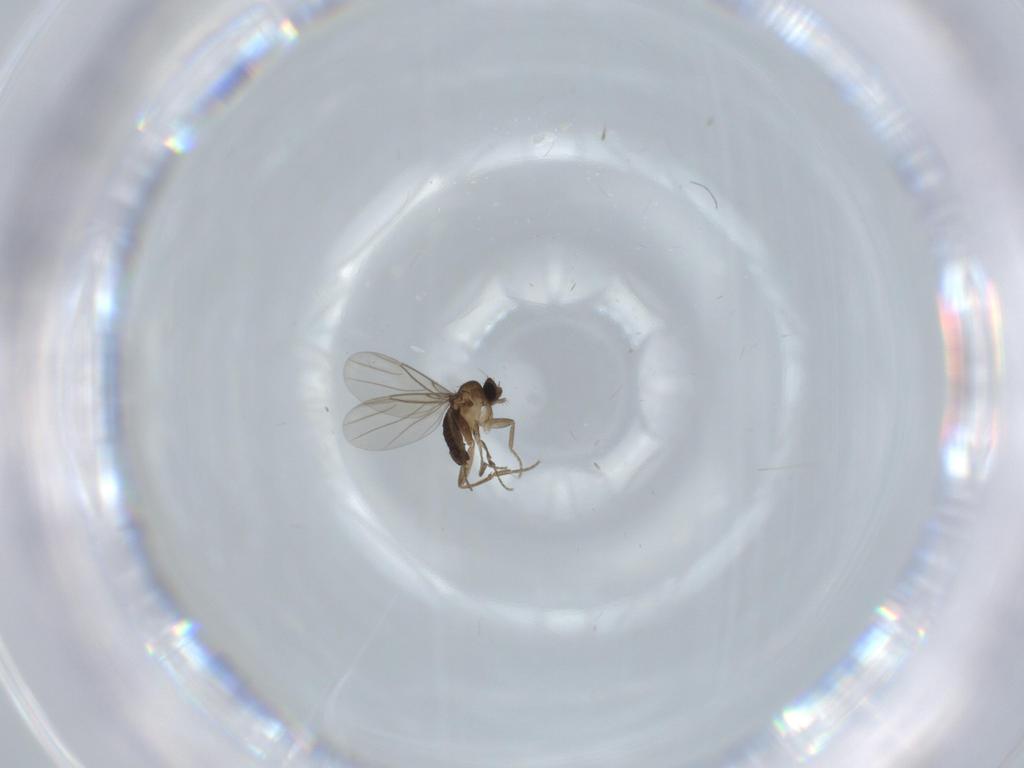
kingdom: Animalia
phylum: Arthropoda
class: Insecta
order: Diptera
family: Phoridae
